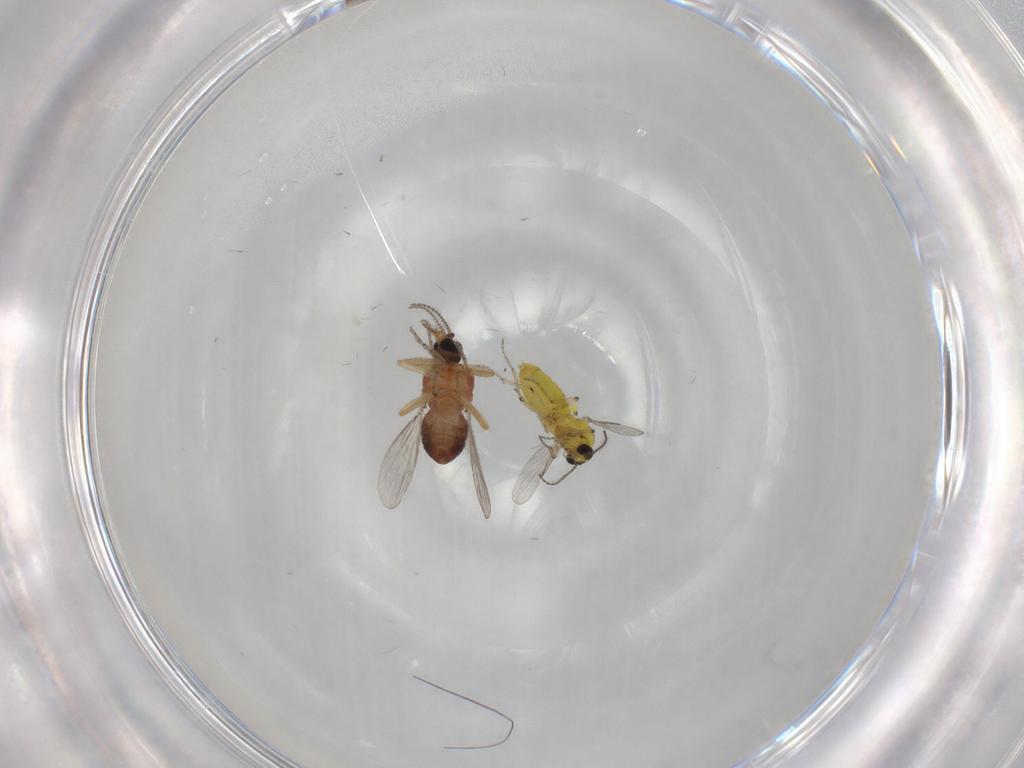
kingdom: Animalia
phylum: Arthropoda
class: Insecta
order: Diptera
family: Ceratopogonidae
